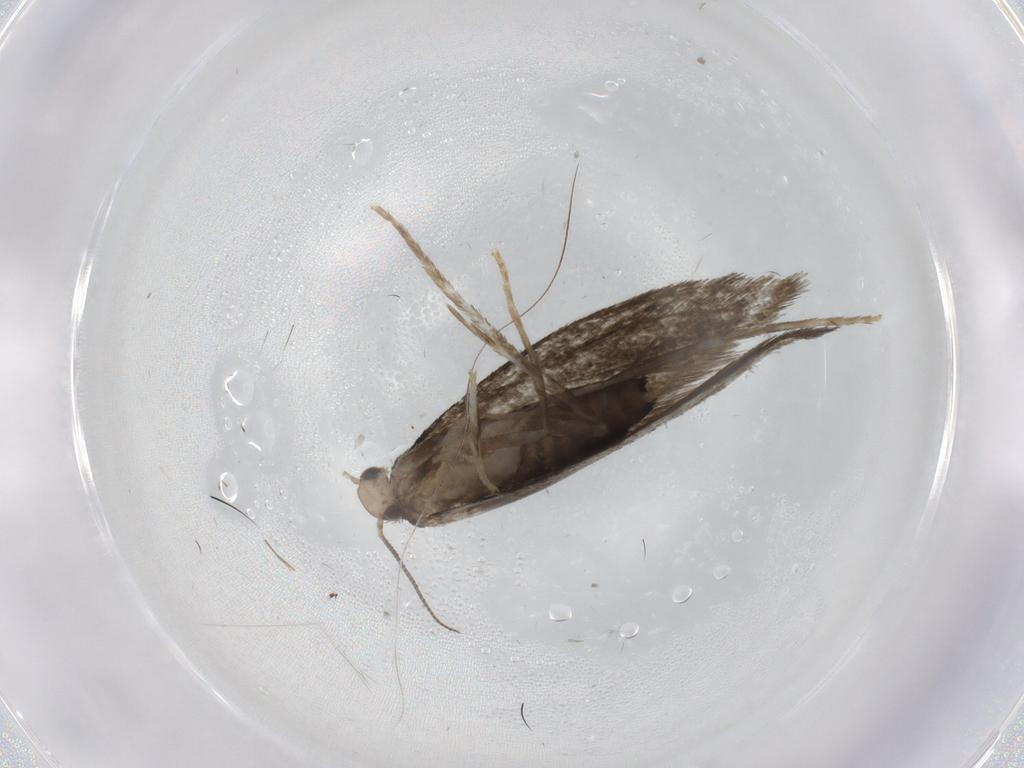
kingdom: Animalia
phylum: Arthropoda
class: Insecta
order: Lepidoptera
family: Tineidae
